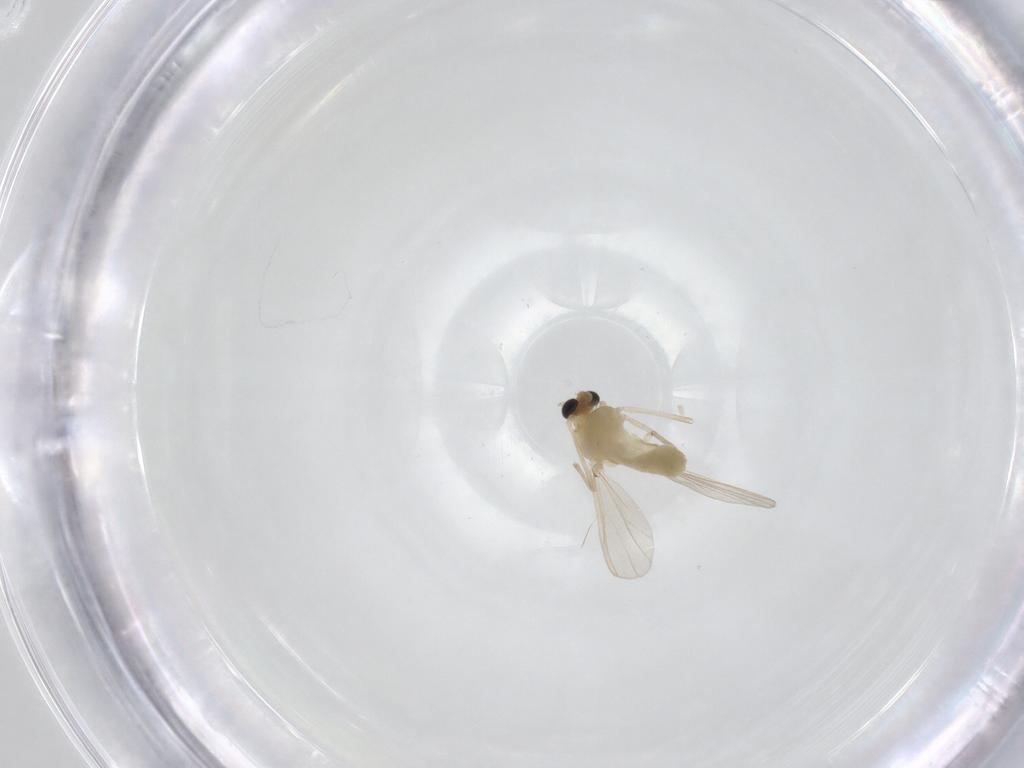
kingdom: Animalia
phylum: Arthropoda
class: Insecta
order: Diptera
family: Chironomidae
